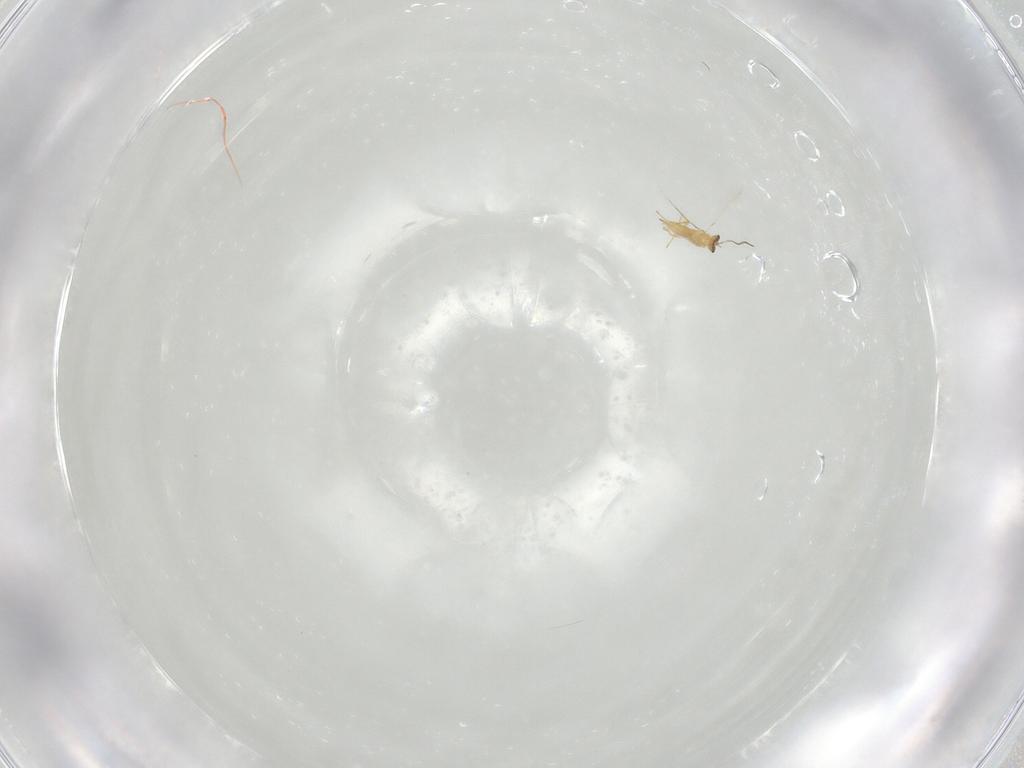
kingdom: Animalia
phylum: Arthropoda
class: Insecta
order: Hymenoptera
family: Mymaridae
